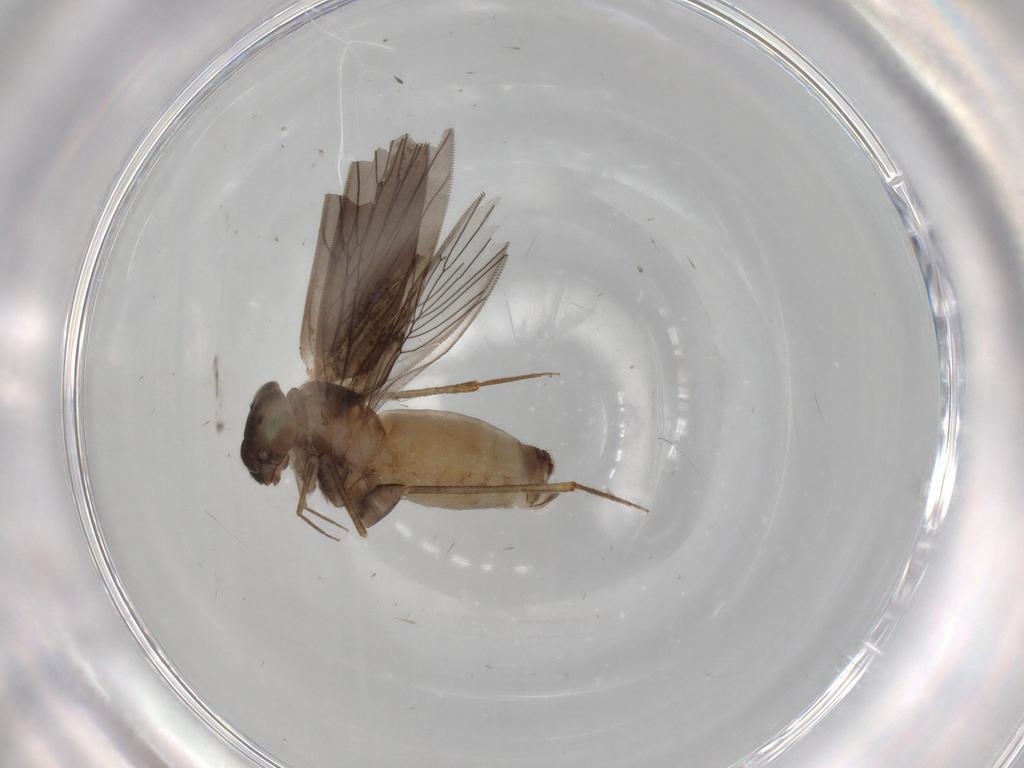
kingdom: Animalia
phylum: Arthropoda
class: Insecta
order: Psocodea
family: Lepidopsocidae
